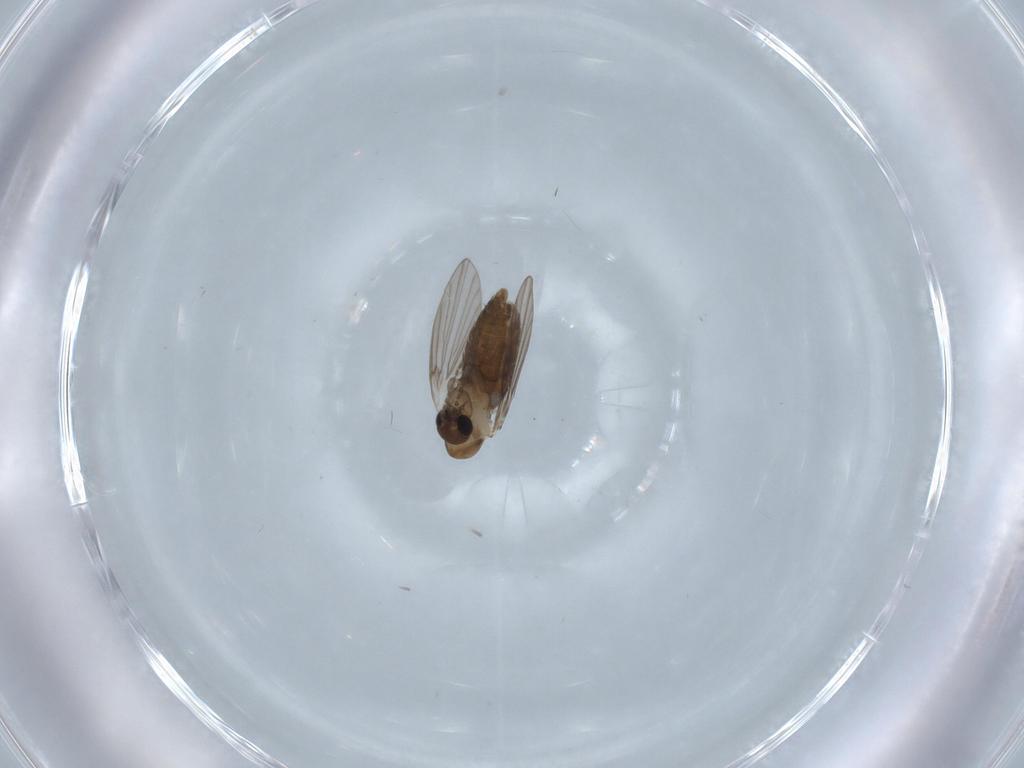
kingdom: Animalia
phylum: Arthropoda
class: Insecta
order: Diptera
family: Psychodidae
